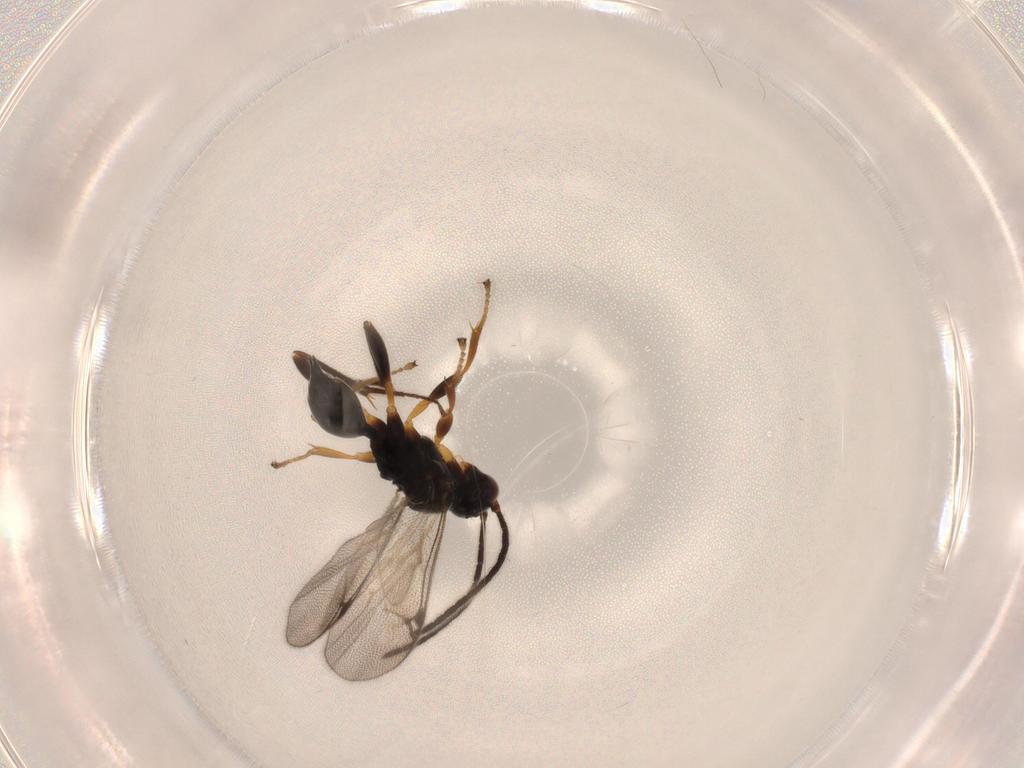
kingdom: Animalia
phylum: Arthropoda
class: Insecta
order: Hymenoptera
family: Proctotrupidae
